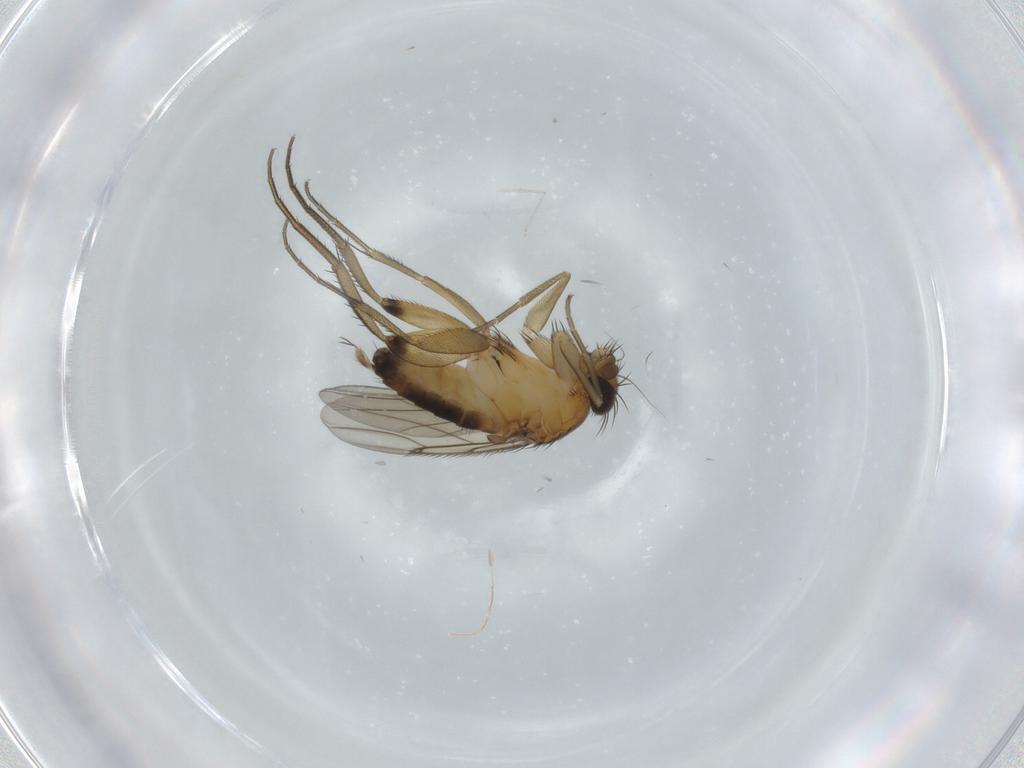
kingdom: Animalia
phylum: Arthropoda
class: Insecta
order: Diptera
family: Phoridae
